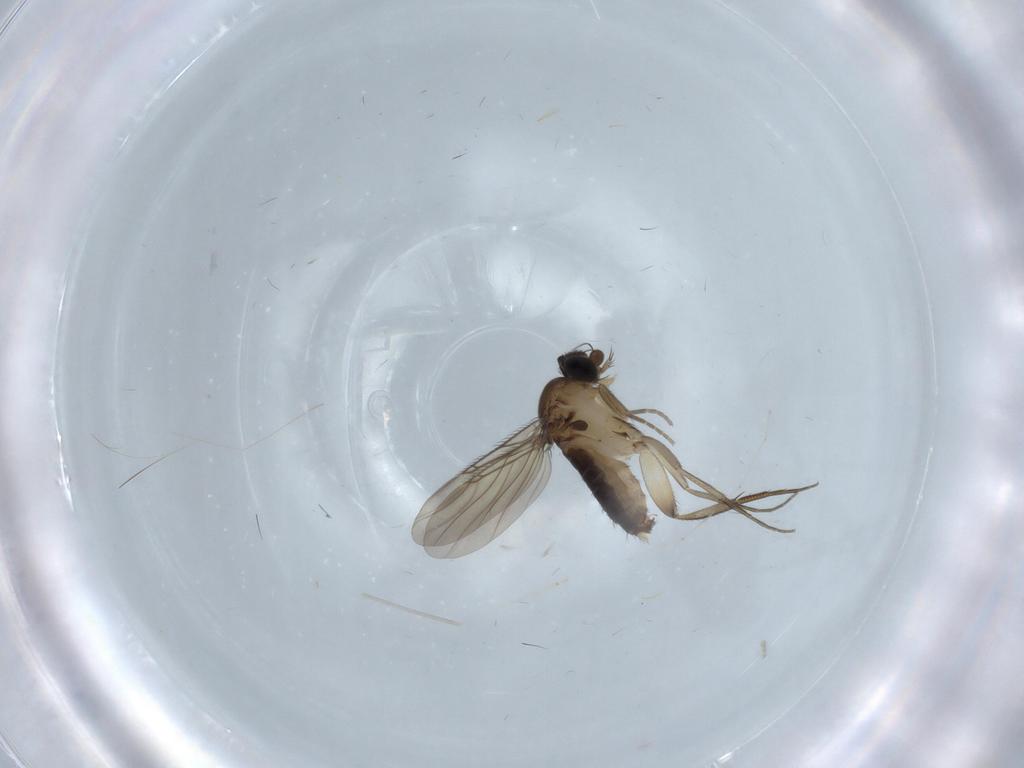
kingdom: Animalia
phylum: Arthropoda
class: Insecta
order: Diptera
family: Phoridae
